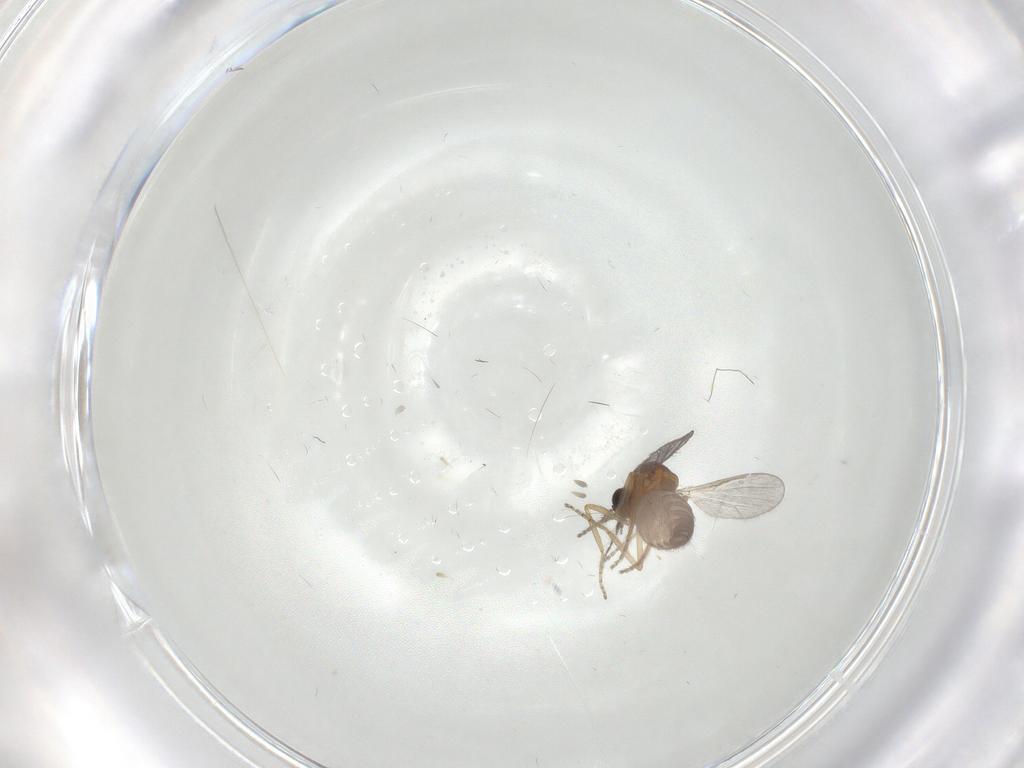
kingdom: Animalia
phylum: Arthropoda
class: Insecta
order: Diptera
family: Ceratopogonidae
